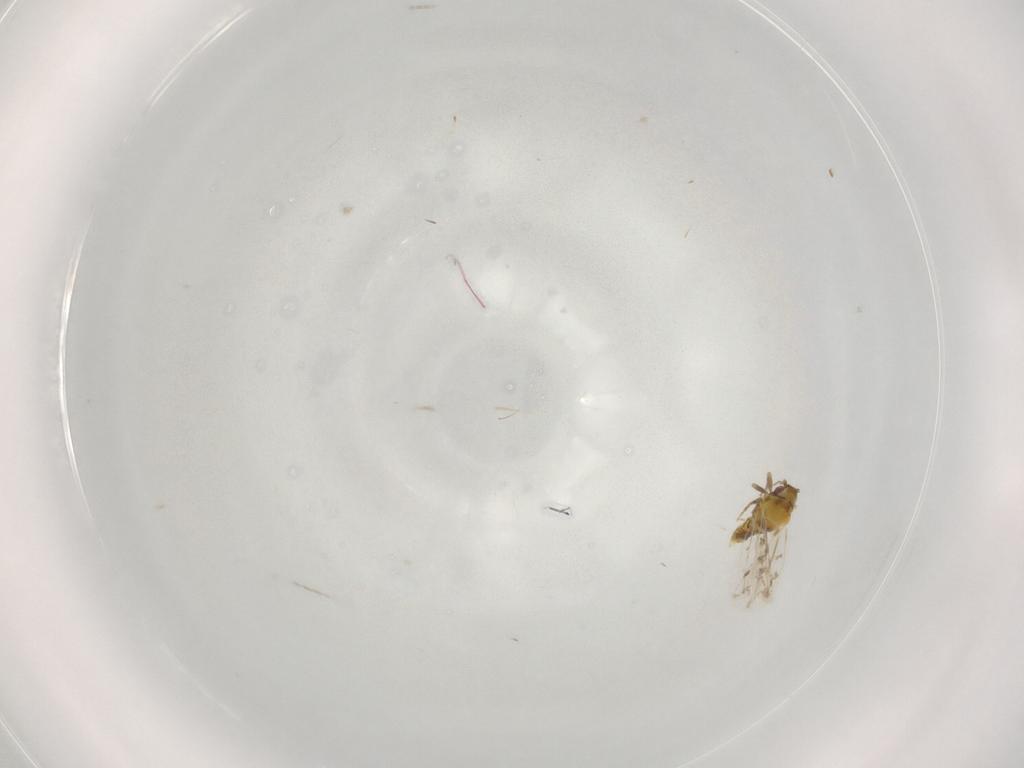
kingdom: Animalia
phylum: Arthropoda
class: Insecta
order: Hemiptera
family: Aleyrodidae
